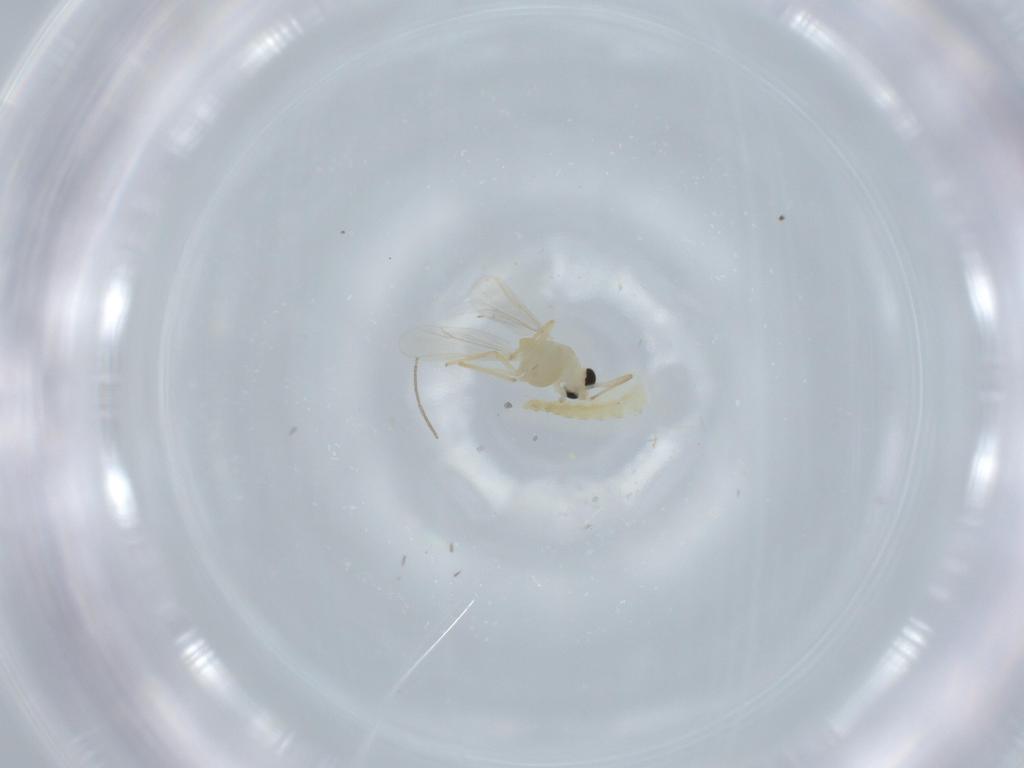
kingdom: Animalia
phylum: Arthropoda
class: Insecta
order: Diptera
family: Chironomidae
